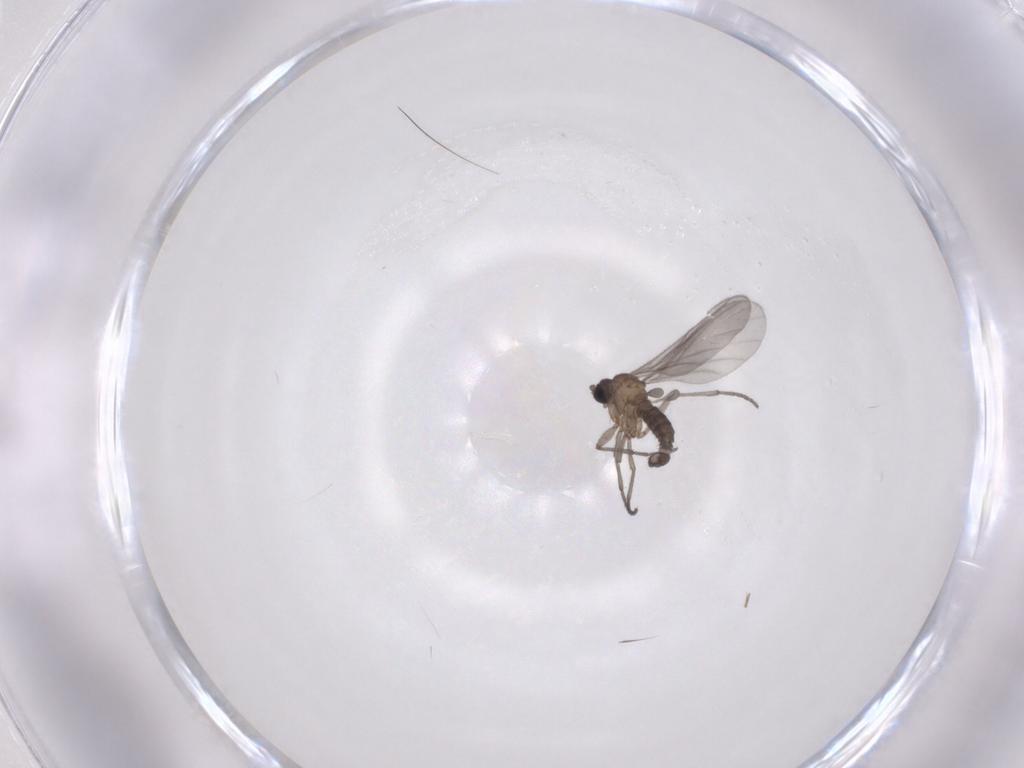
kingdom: Animalia
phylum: Arthropoda
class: Insecta
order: Diptera
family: Sciaridae
